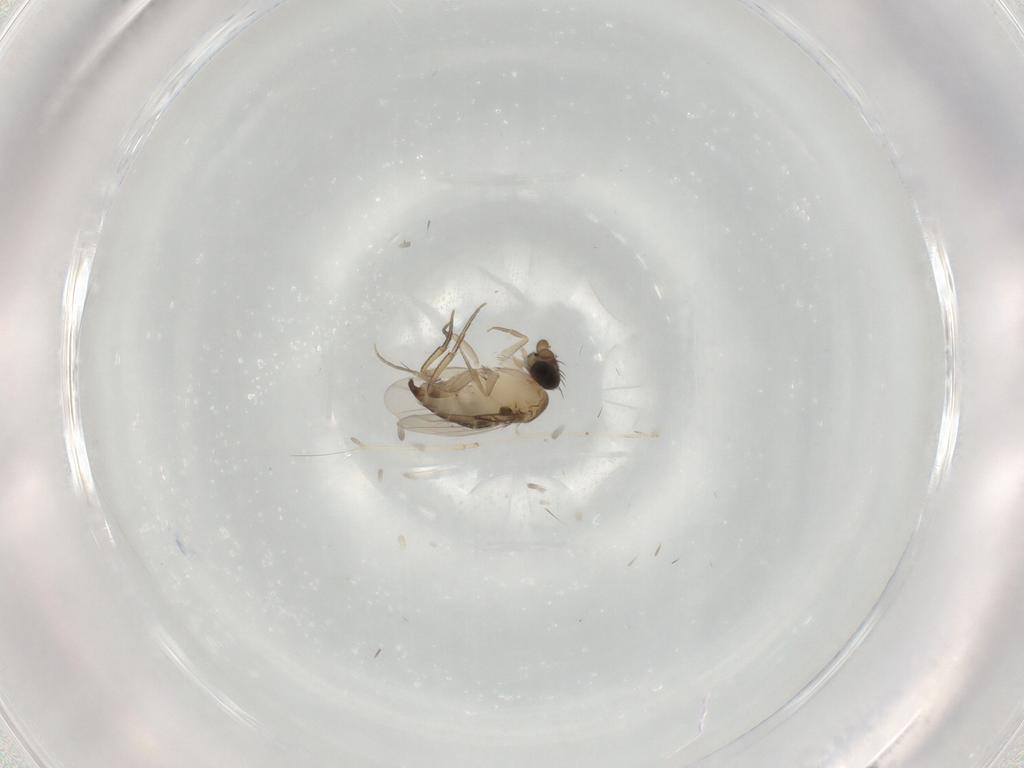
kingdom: Animalia
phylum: Arthropoda
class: Insecta
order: Diptera
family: Phoridae
